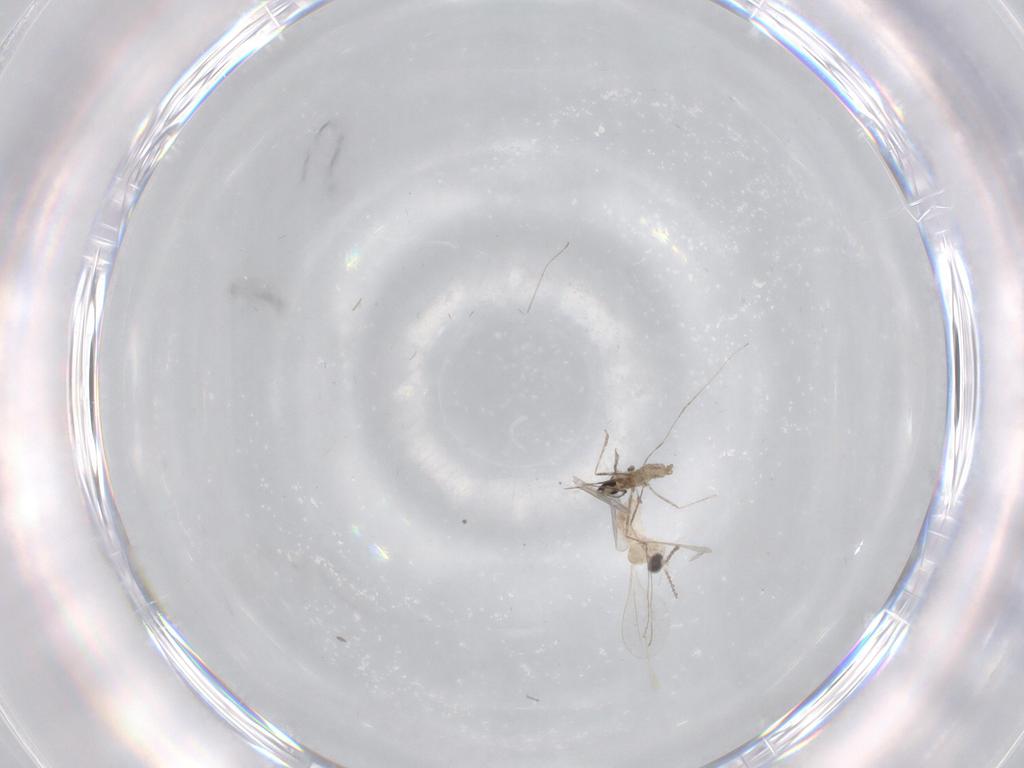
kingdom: Animalia
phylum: Arthropoda
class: Insecta
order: Diptera
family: Cecidomyiidae
